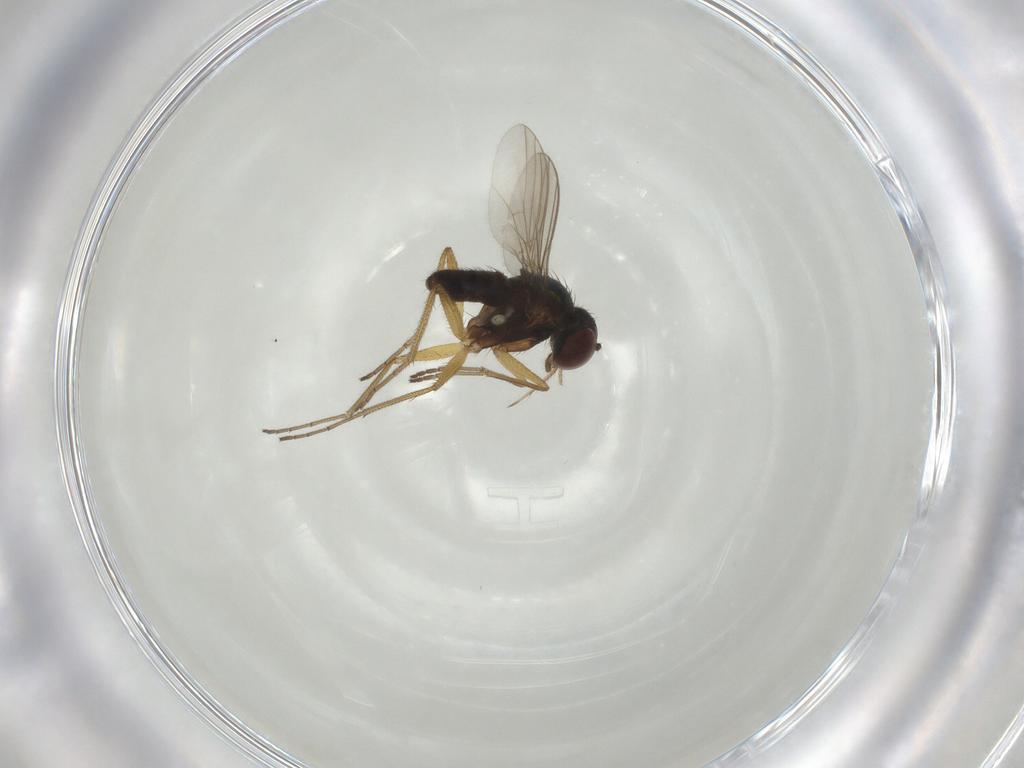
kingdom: Animalia
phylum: Arthropoda
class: Insecta
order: Diptera
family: Dolichopodidae
